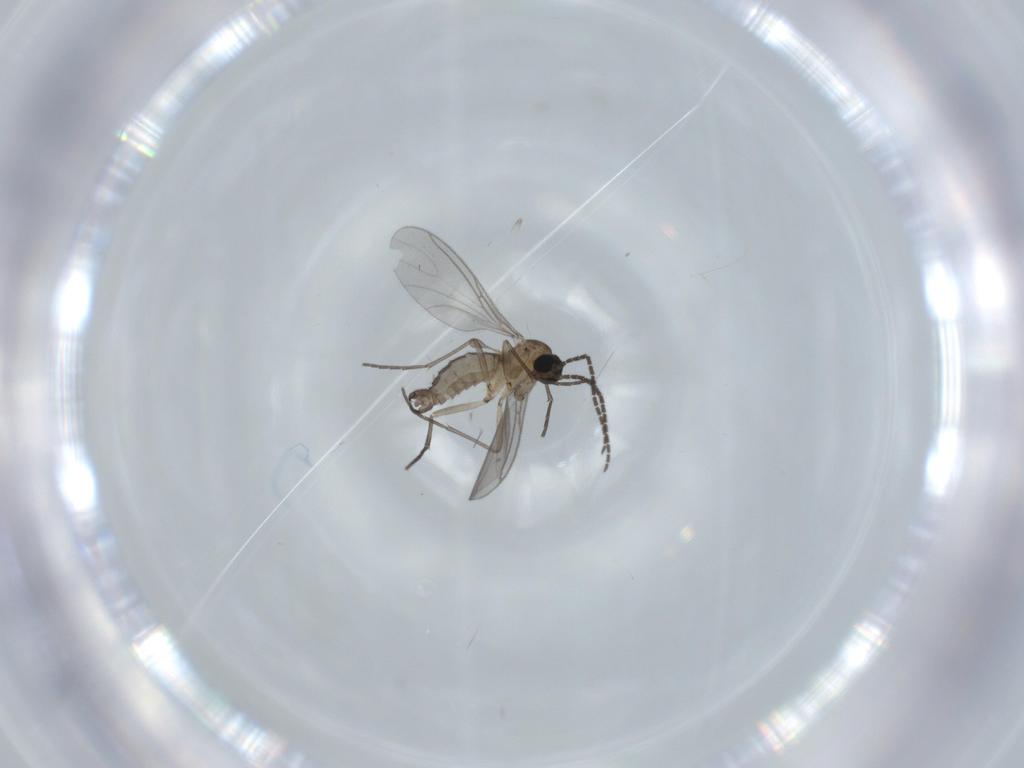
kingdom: Animalia
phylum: Arthropoda
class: Insecta
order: Diptera
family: Sciaridae
